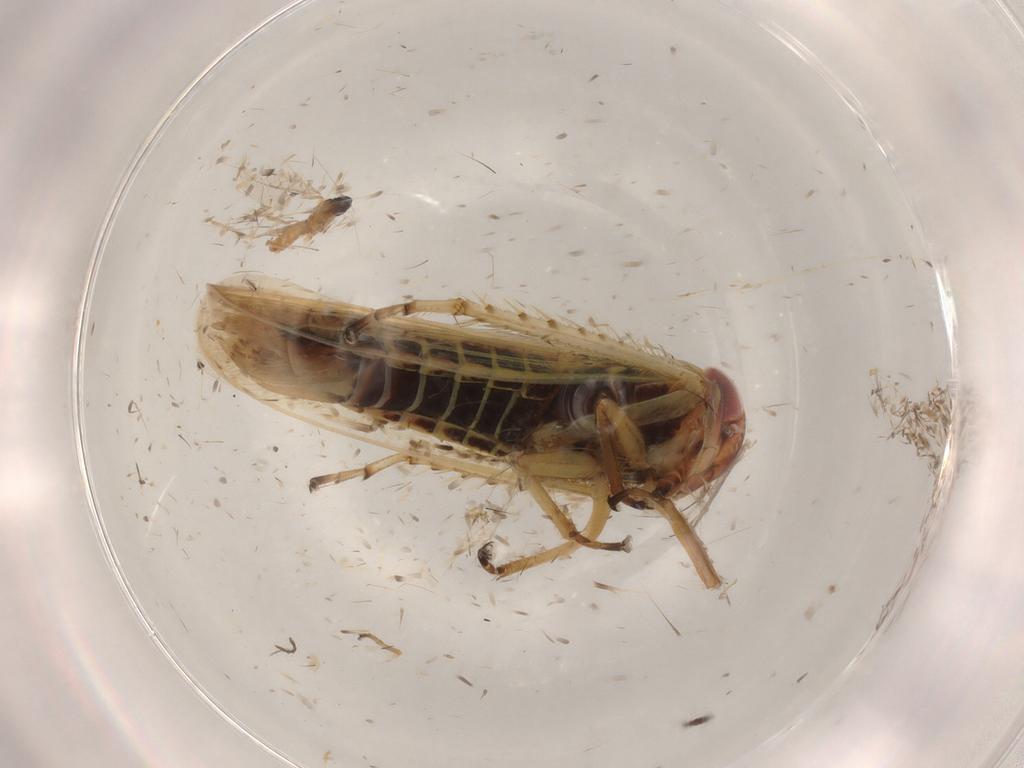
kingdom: Animalia
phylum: Arthropoda
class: Insecta
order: Hemiptera
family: Cicadellidae
